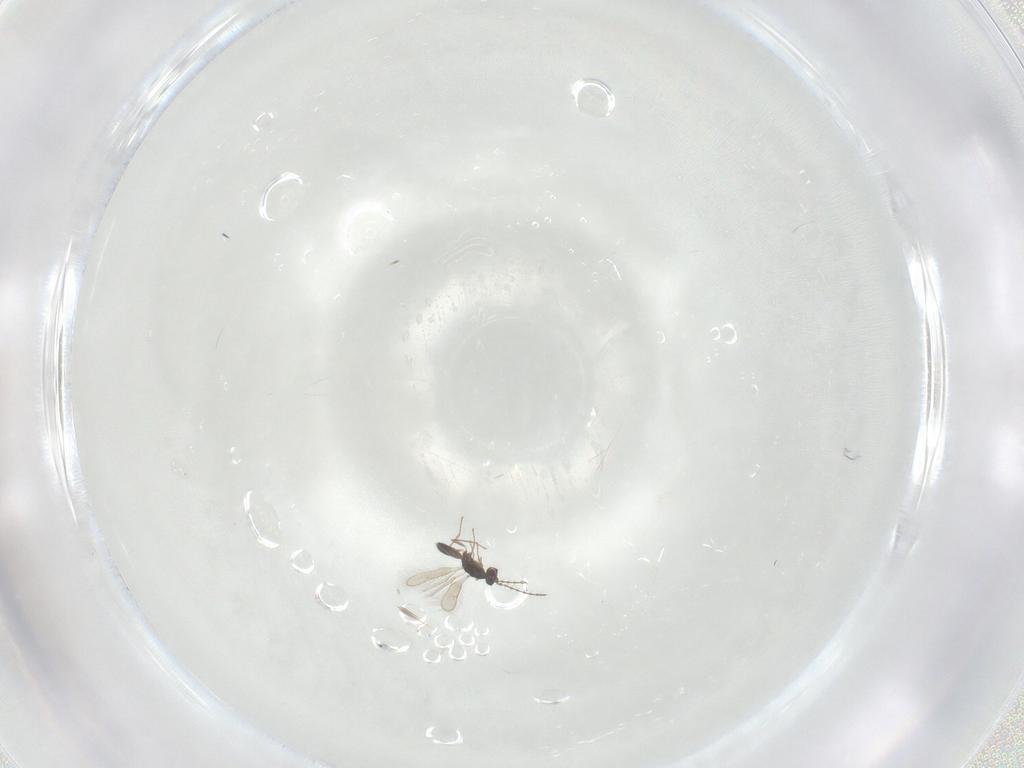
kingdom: Animalia
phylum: Arthropoda
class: Insecta
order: Hymenoptera
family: Pteromalidae
